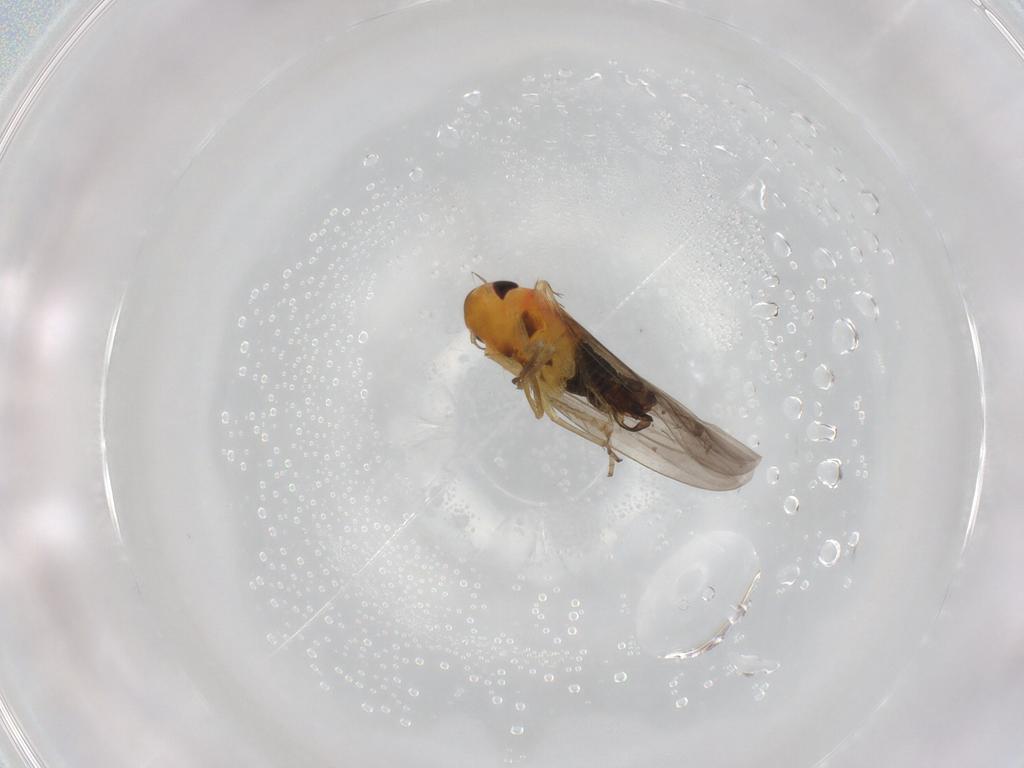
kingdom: Animalia
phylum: Arthropoda
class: Insecta
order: Hemiptera
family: Cicadellidae
